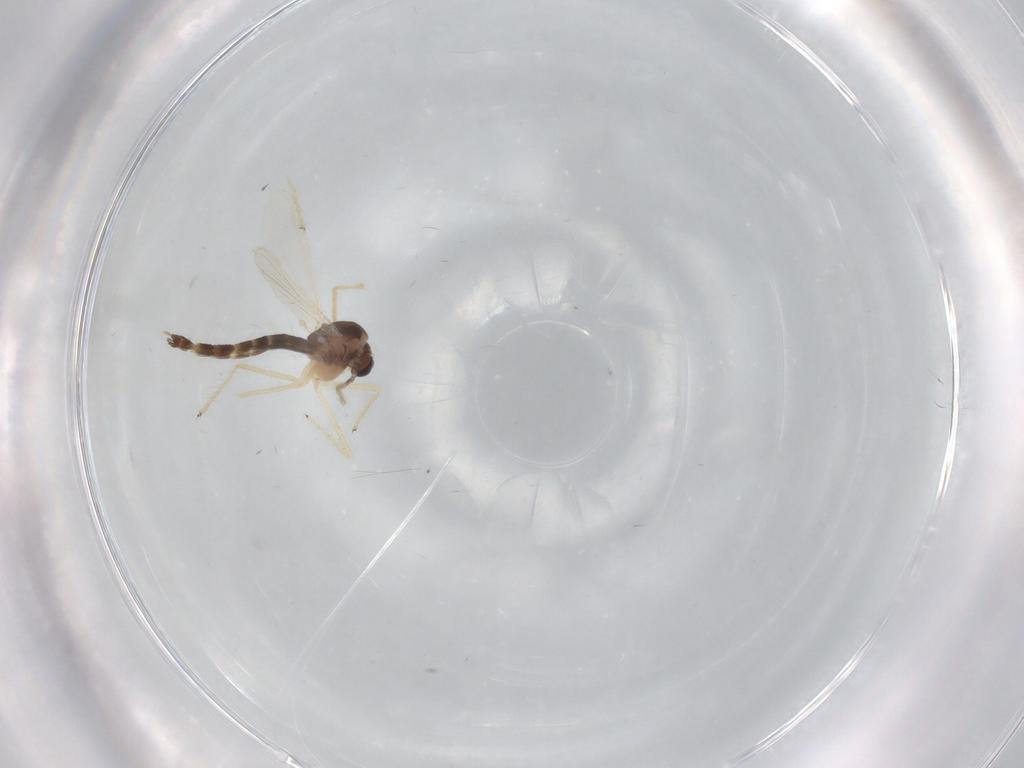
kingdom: Animalia
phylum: Arthropoda
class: Insecta
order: Diptera
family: Chironomidae
